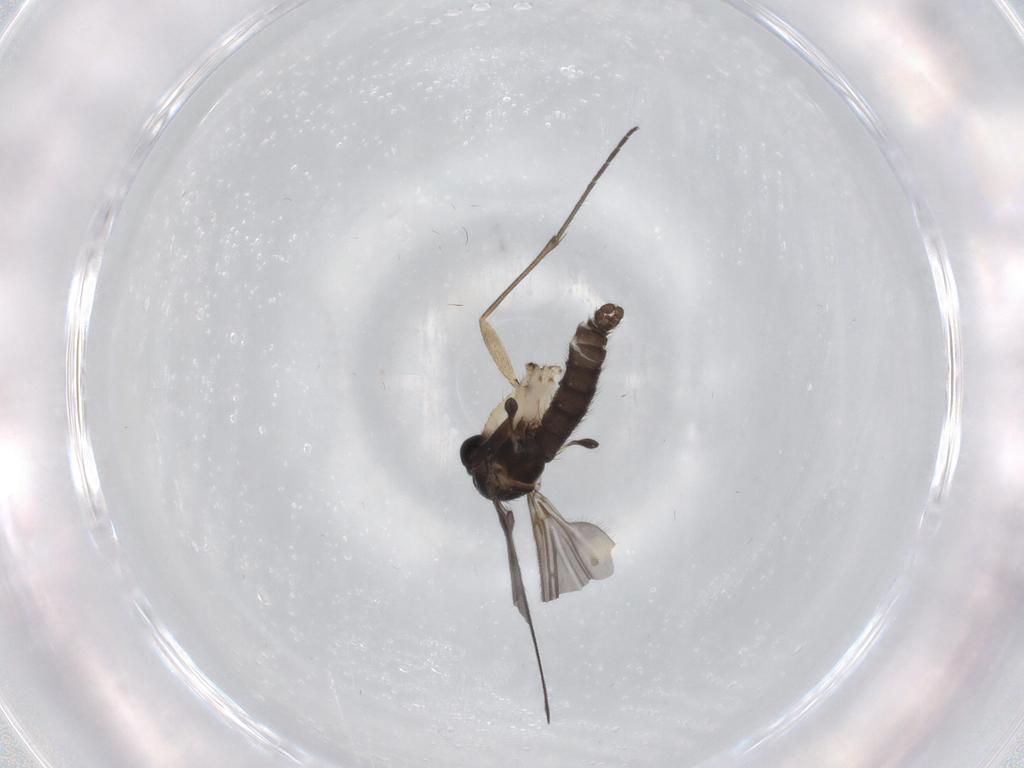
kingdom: Animalia
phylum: Arthropoda
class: Insecta
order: Diptera
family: Sciaridae
